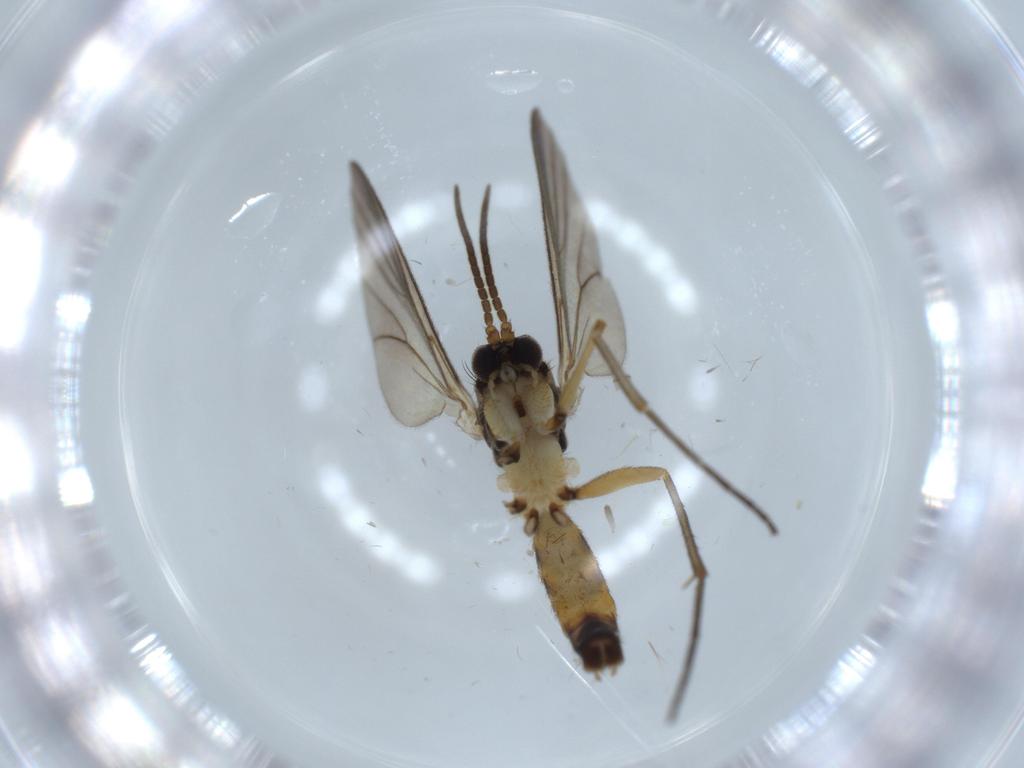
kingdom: Animalia
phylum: Arthropoda
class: Insecta
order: Diptera
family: Mycetophilidae
